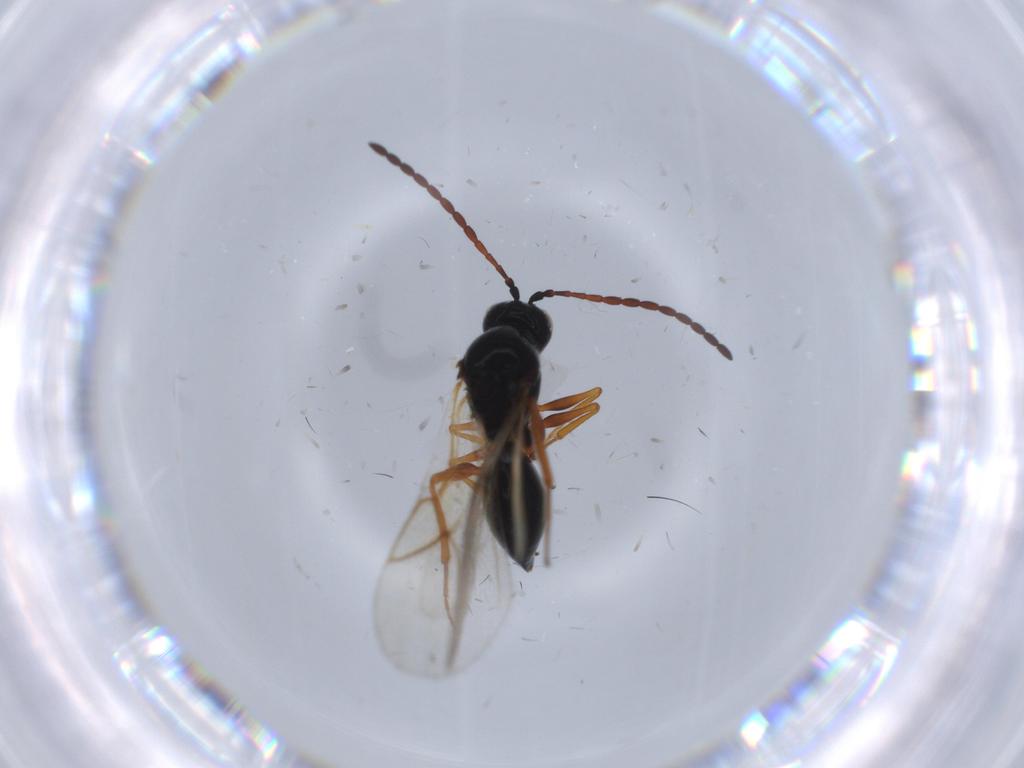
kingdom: Animalia
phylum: Arthropoda
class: Insecta
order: Hymenoptera
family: Figitidae
